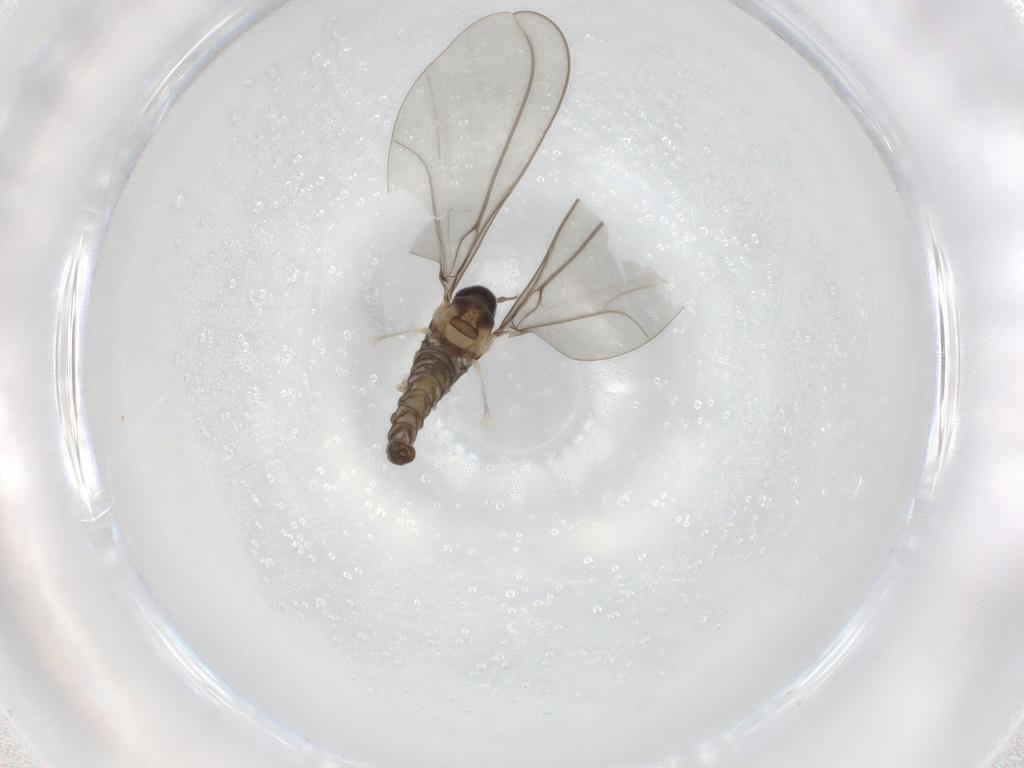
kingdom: Animalia
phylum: Arthropoda
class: Insecta
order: Diptera
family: Cecidomyiidae
